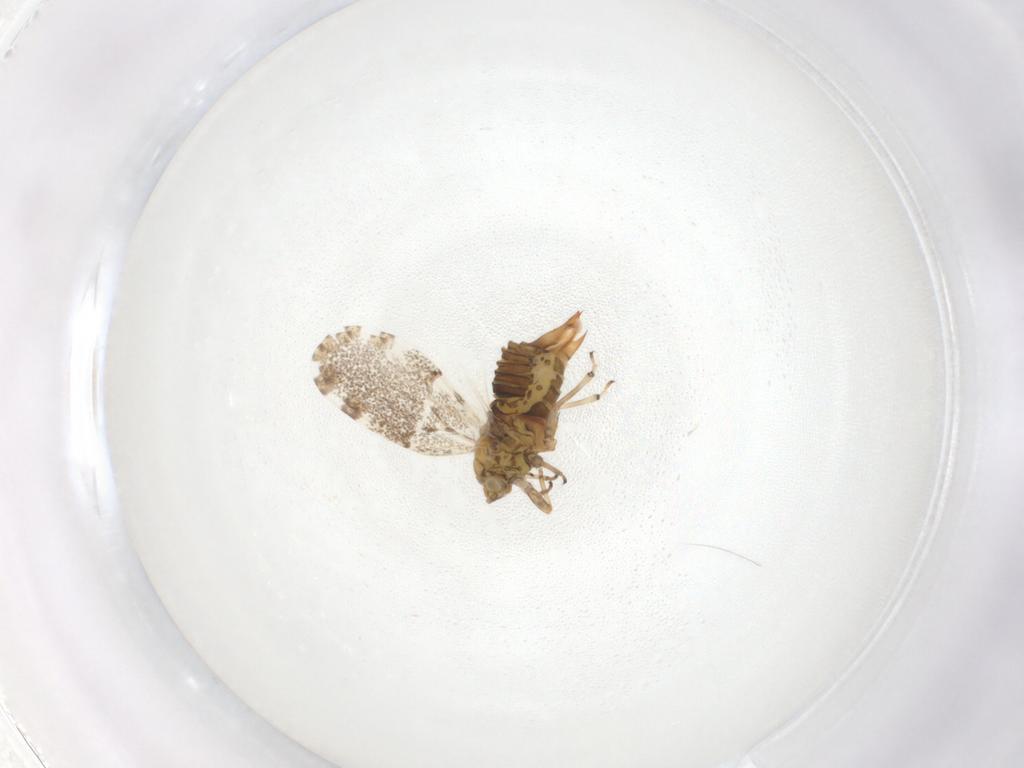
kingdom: Animalia
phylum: Arthropoda
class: Insecta
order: Hemiptera
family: Psylloidea_incertae_sedis
